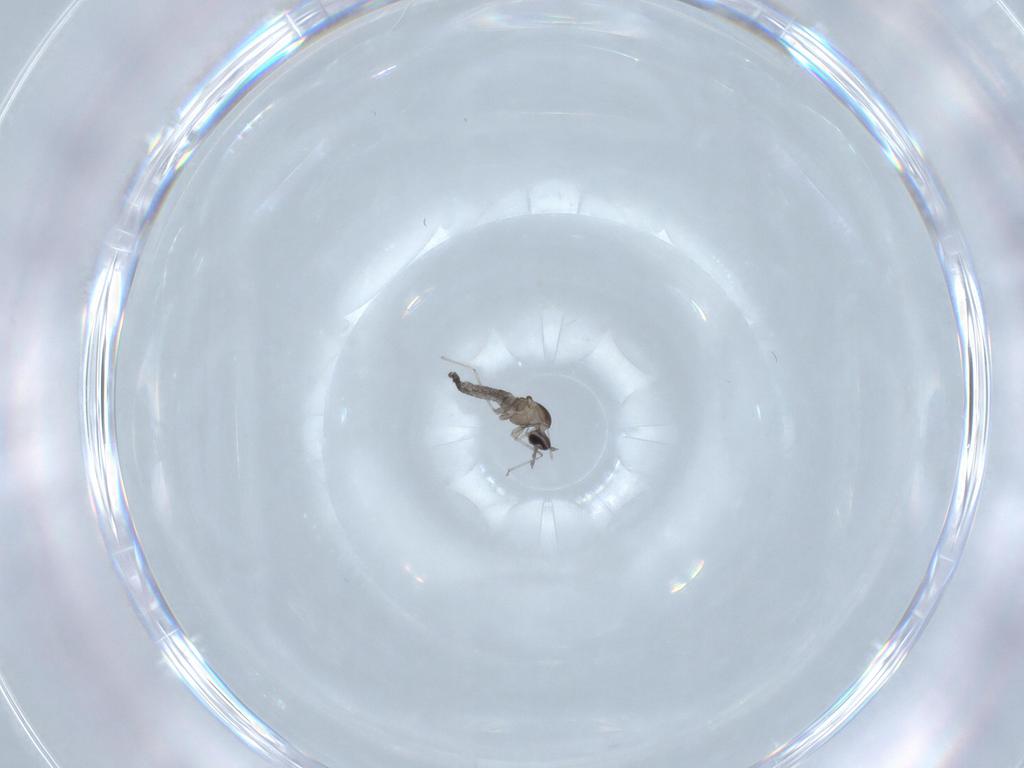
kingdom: Animalia
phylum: Arthropoda
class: Insecta
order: Diptera
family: Cecidomyiidae
